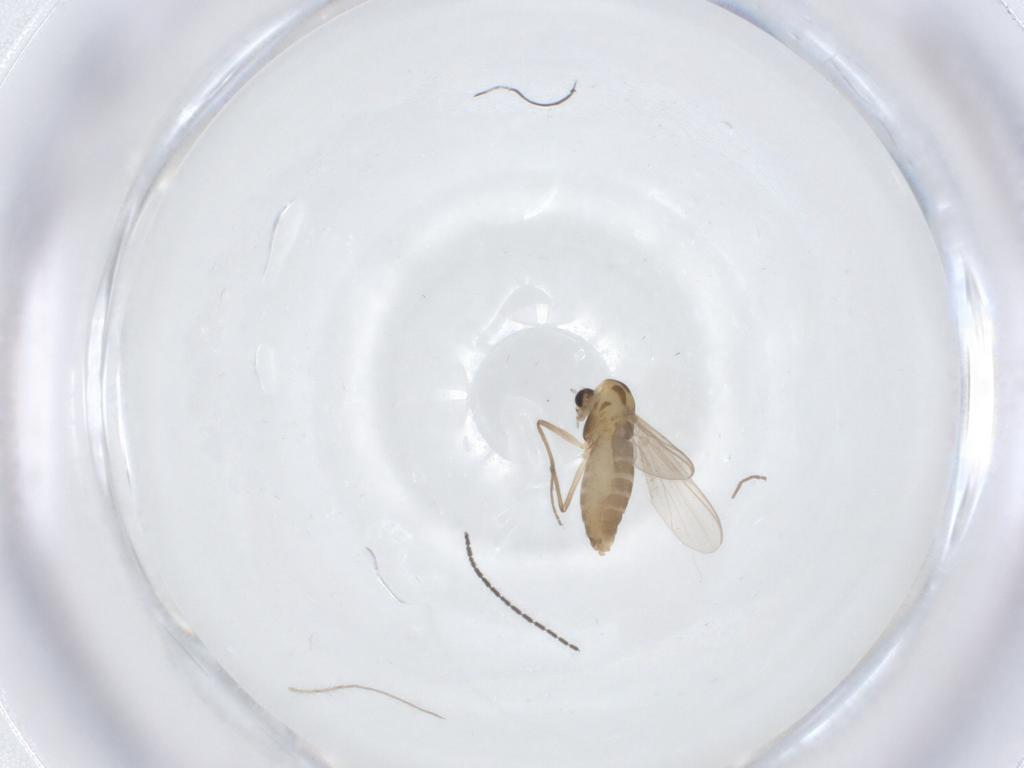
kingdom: Animalia
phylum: Arthropoda
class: Insecta
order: Diptera
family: Chironomidae
